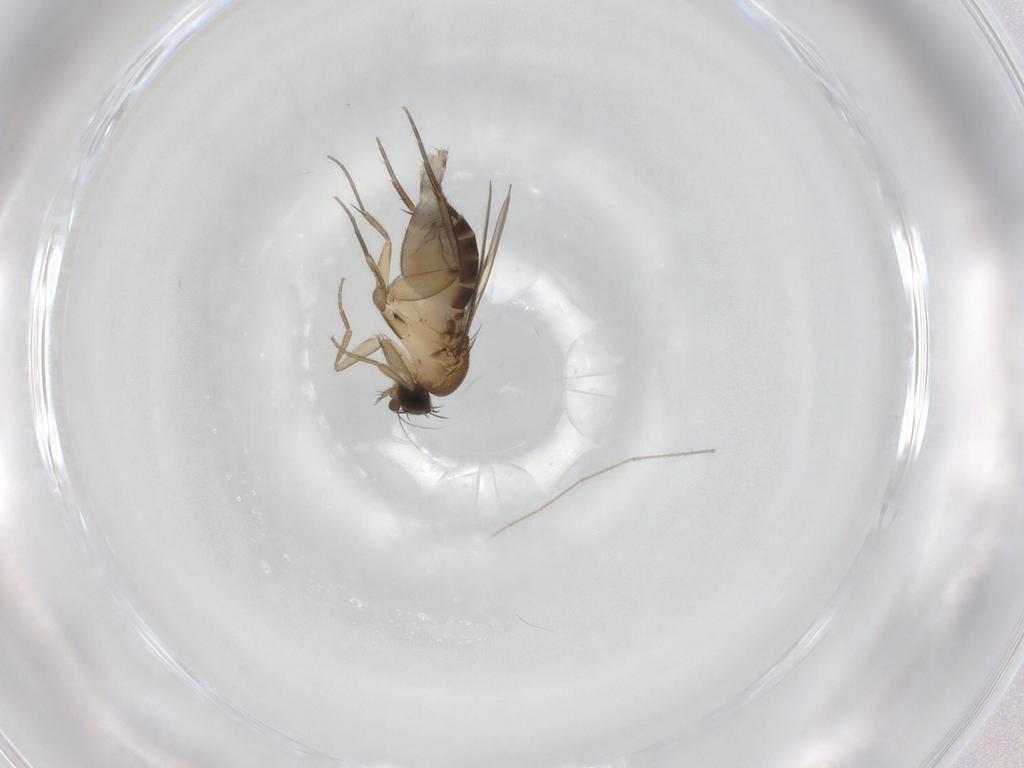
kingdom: Animalia
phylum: Arthropoda
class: Insecta
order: Diptera
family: Phoridae
